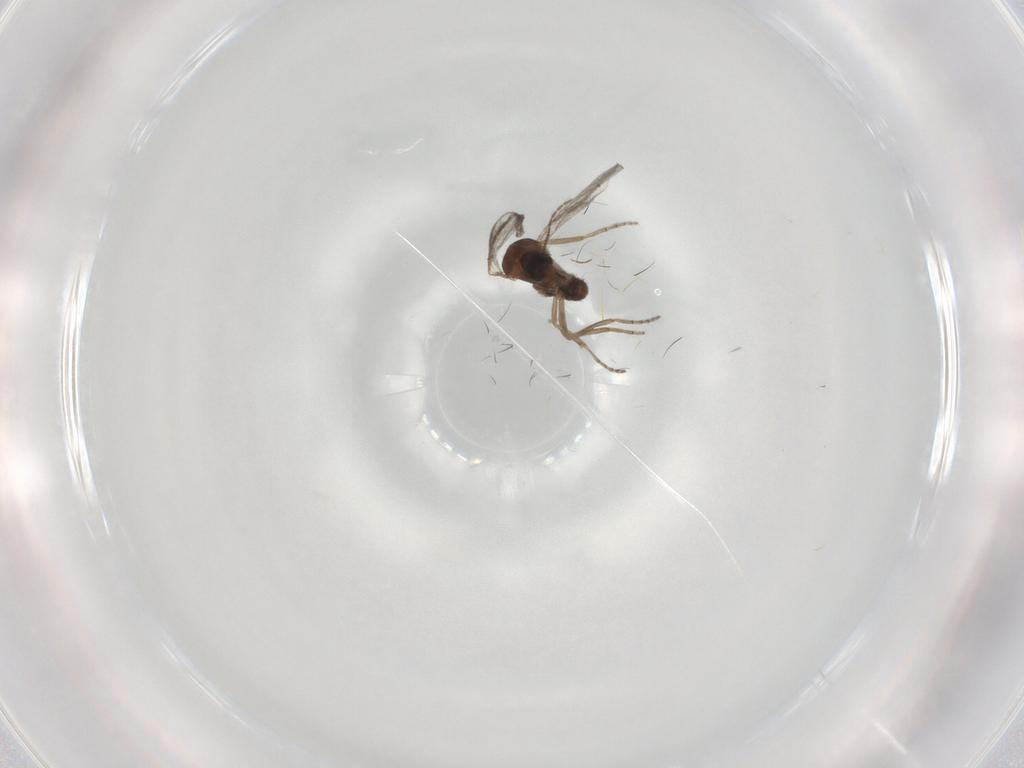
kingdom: Animalia
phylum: Arthropoda
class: Insecta
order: Diptera
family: Ceratopogonidae
